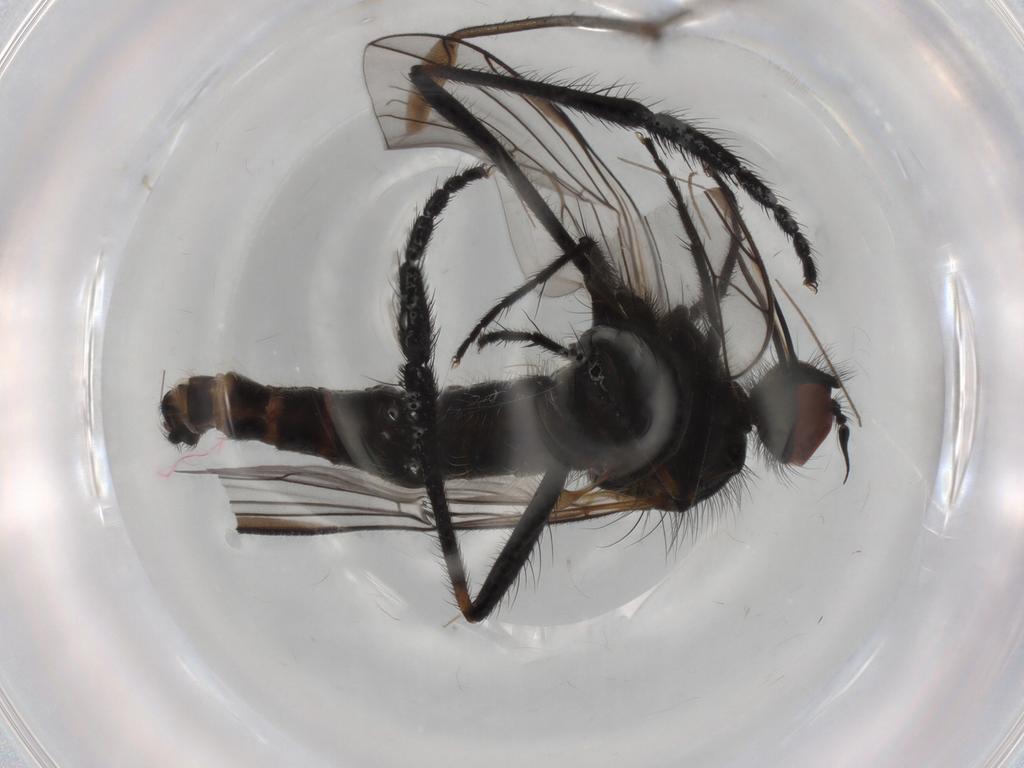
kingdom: Animalia
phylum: Arthropoda
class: Insecta
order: Diptera
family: Empididae
